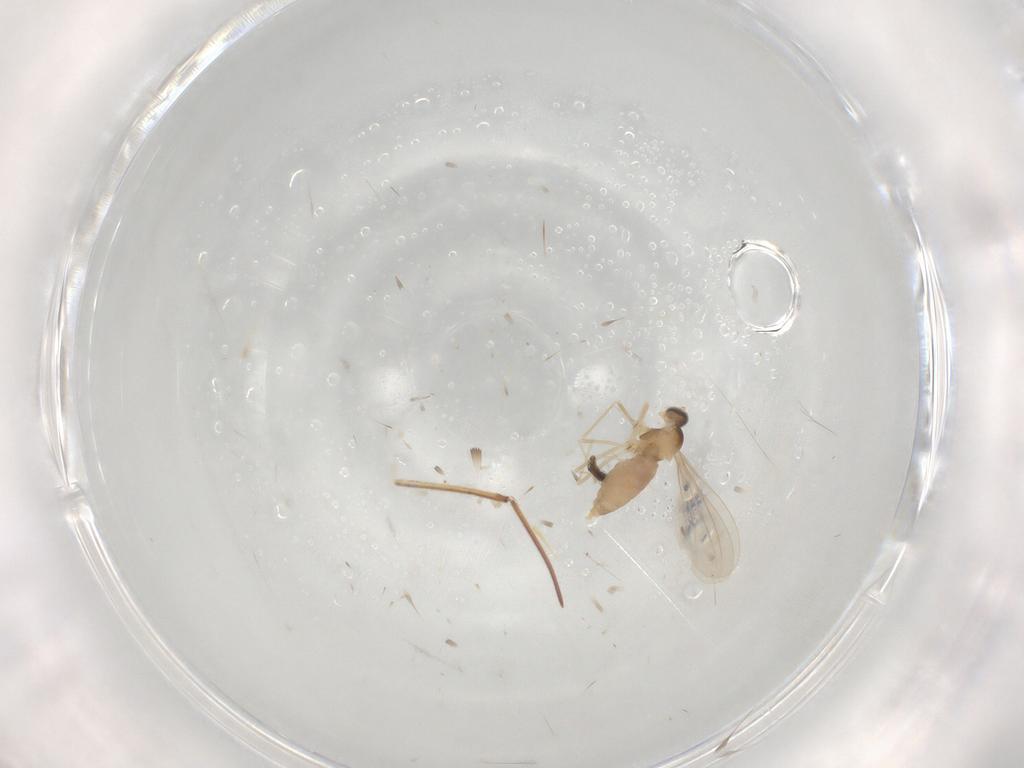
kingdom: Animalia
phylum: Arthropoda
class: Insecta
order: Diptera
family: Cecidomyiidae
